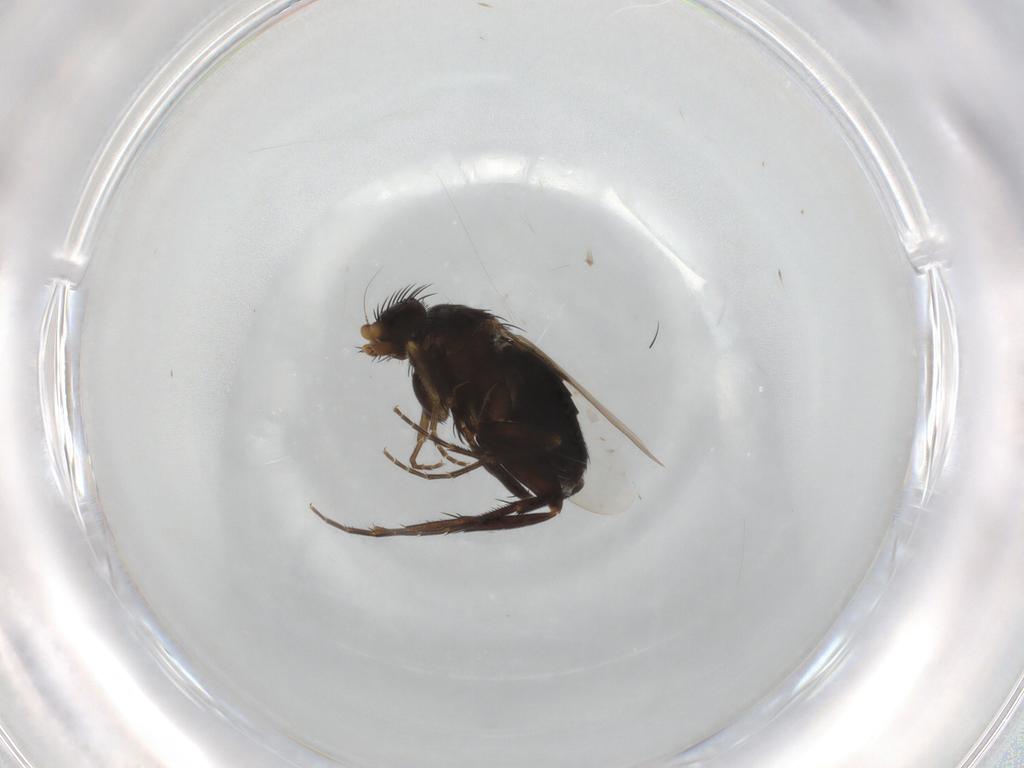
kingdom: Animalia
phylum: Arthropoda
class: Insecta
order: Diptera
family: Phoridae
